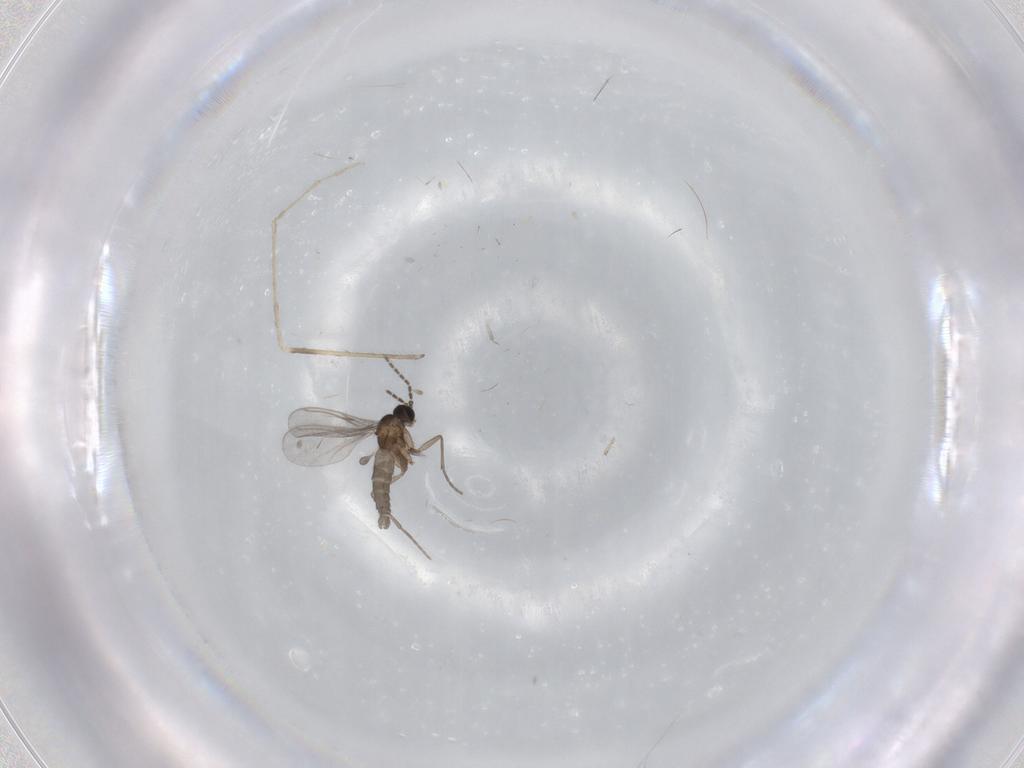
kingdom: Animalia
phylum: Arthropoda
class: Insecta
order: Diptera
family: Sciaridae
